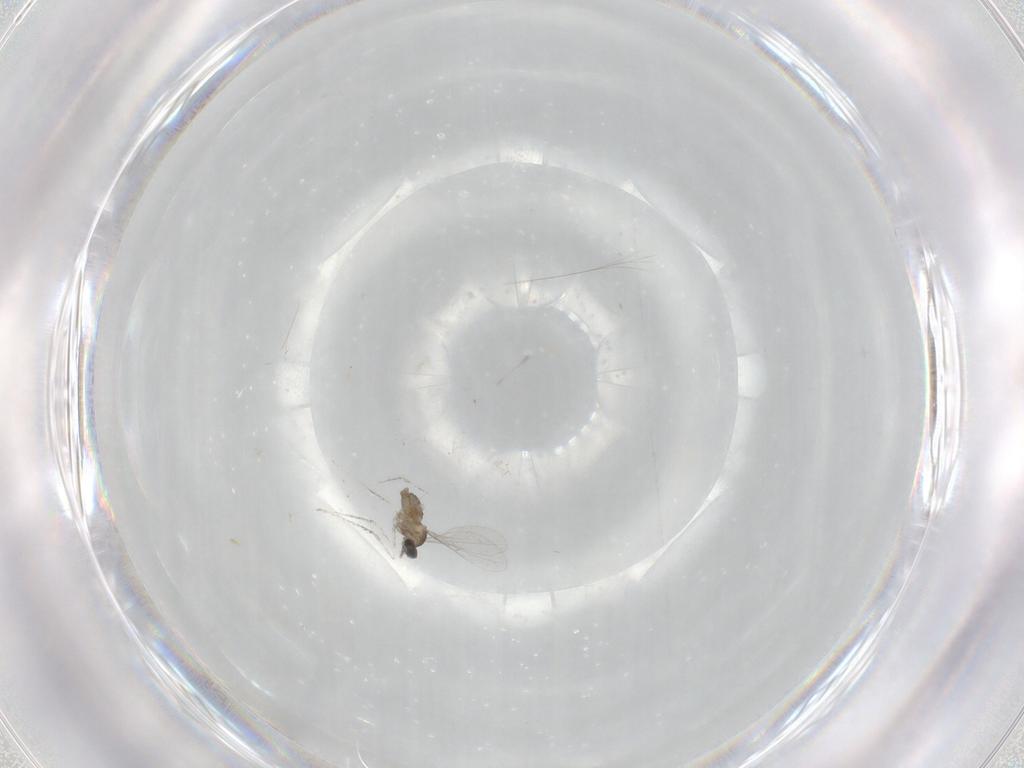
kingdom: Animalia
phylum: Arthropoda
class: Insecta
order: Diptera
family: Cecidomyiidae
